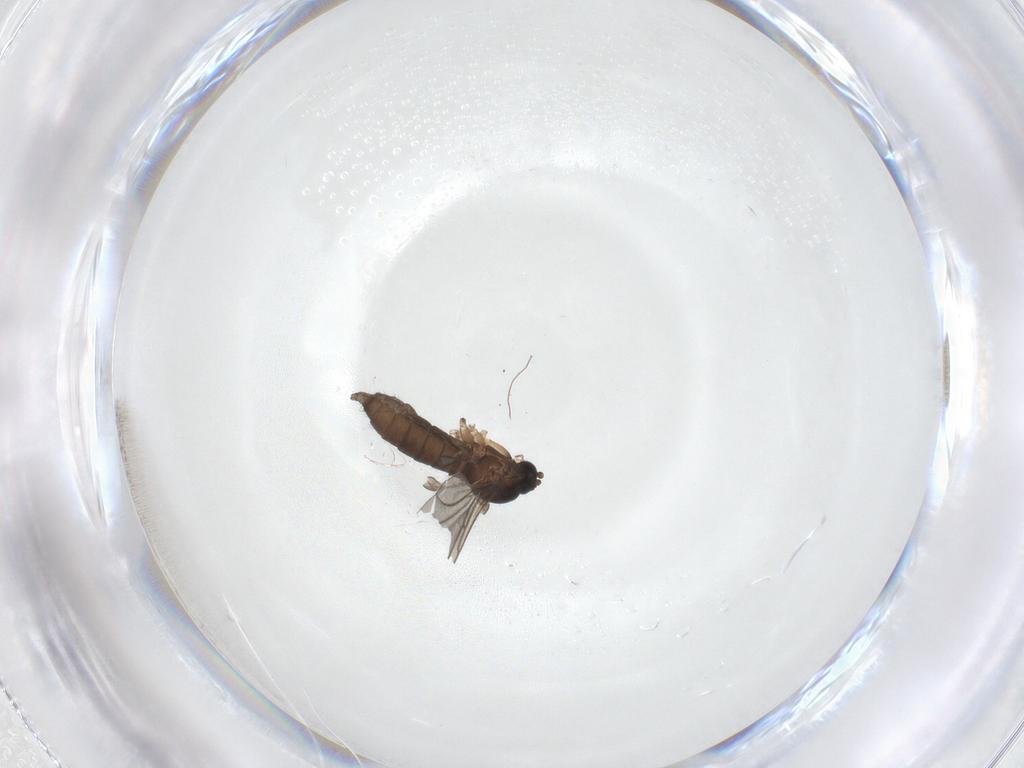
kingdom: Animalia
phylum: Arthropoda
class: Insecta
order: Diptera
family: Sciaridae
